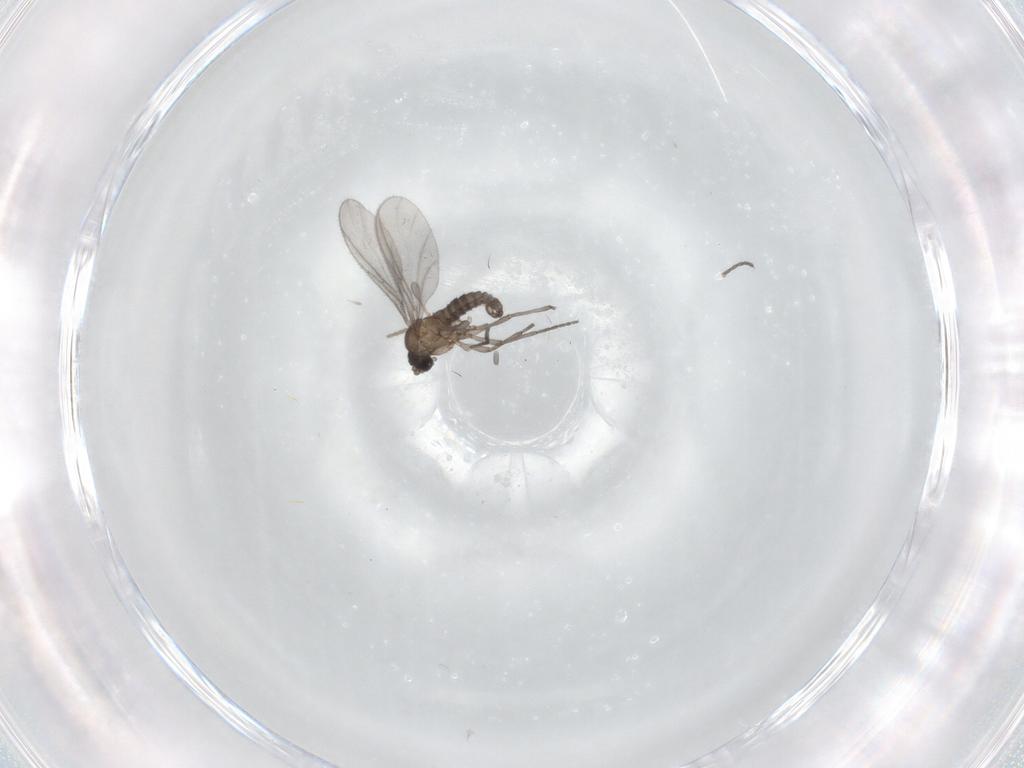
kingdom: Animalia
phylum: Arthropoda
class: Insecta
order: Diptera
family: Sciaridae
